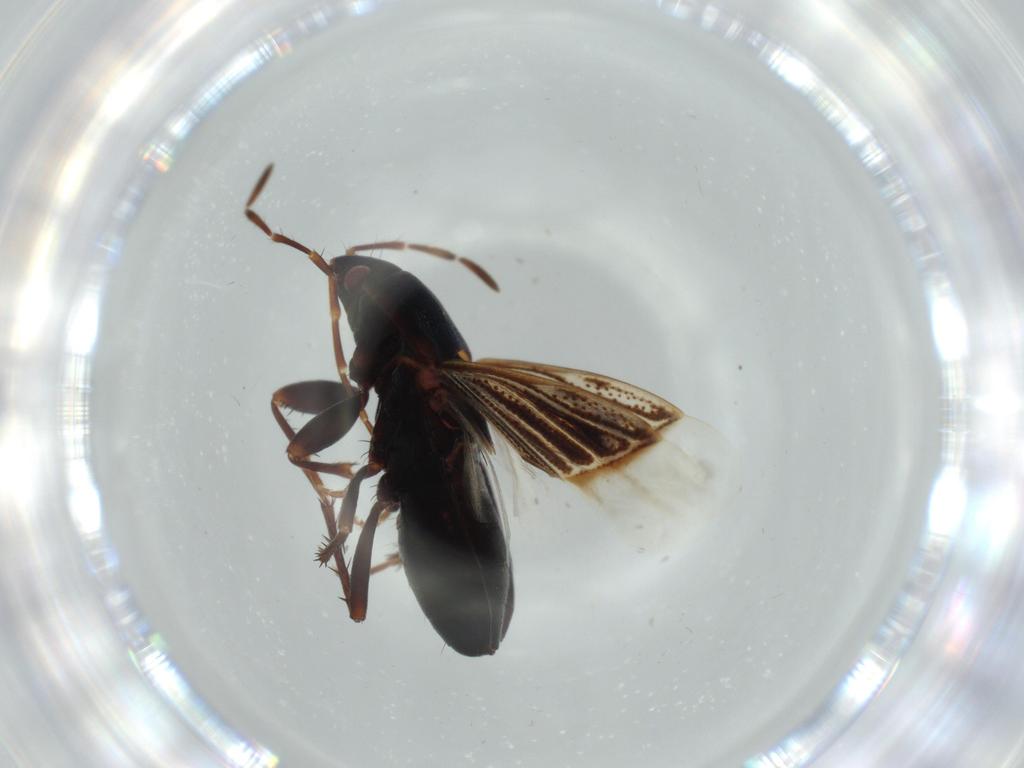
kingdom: Animalia
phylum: Arthropoda
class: Insecta
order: Hemiptera
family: Rhyparochromidae
